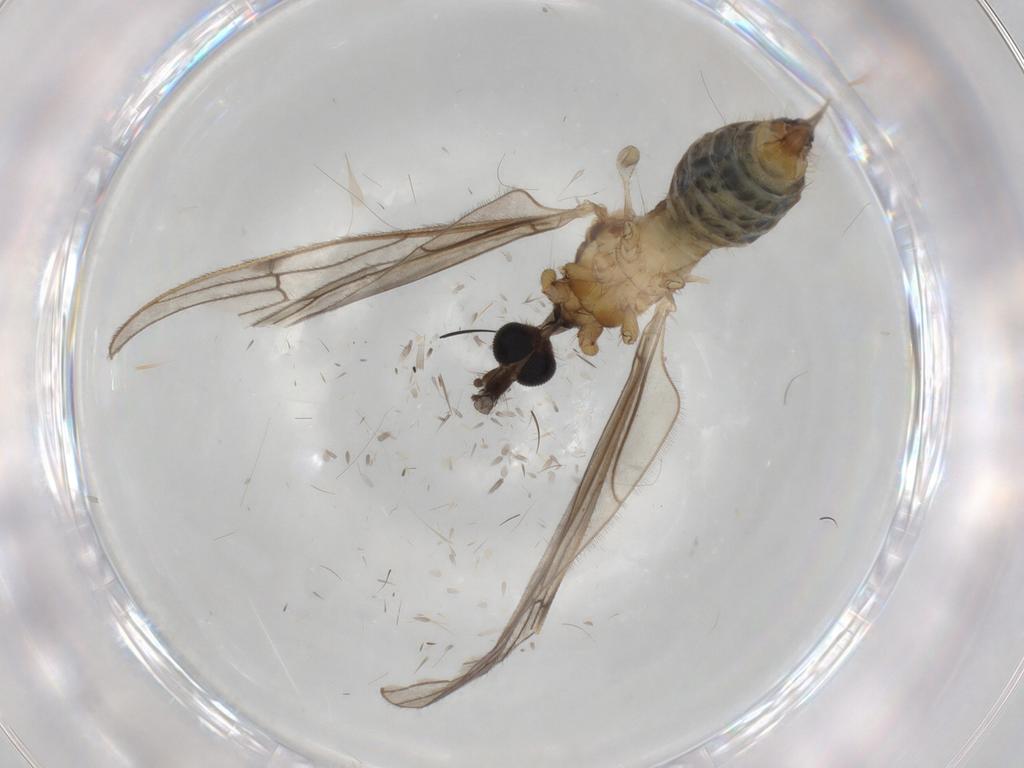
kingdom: Animalia
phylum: Arthropoda
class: Insecta
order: Diptera
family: Limoniidae
